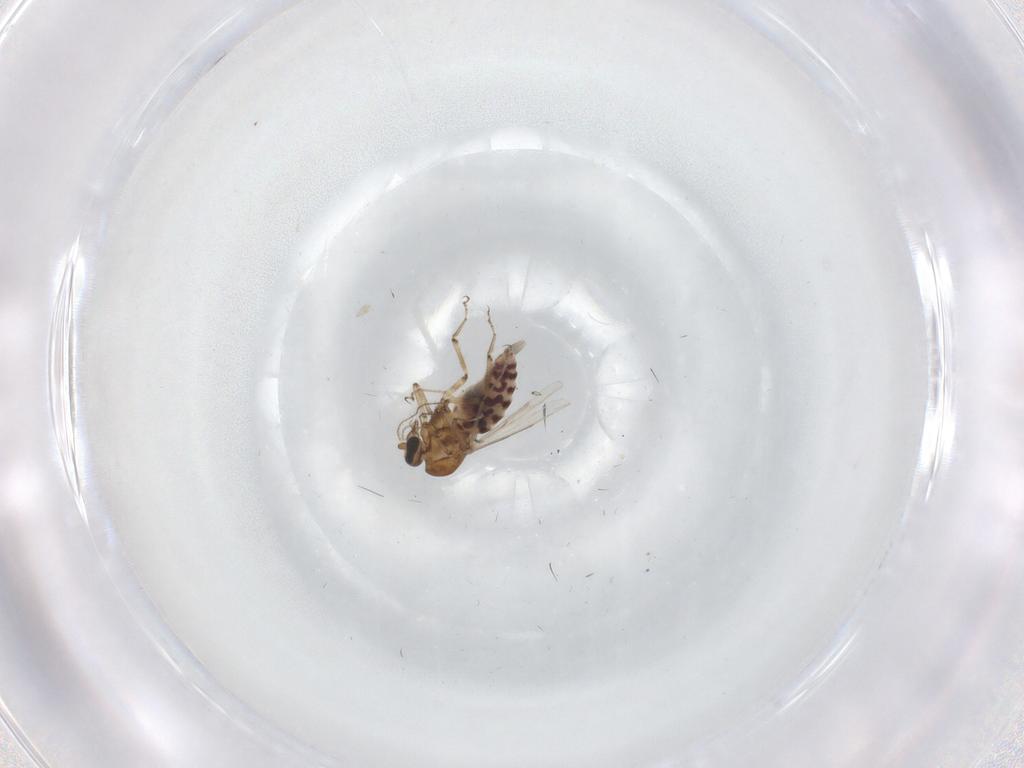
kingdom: Animalia
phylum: Arthropoda
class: Insecta
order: Diptera
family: Ceratopogonidae
